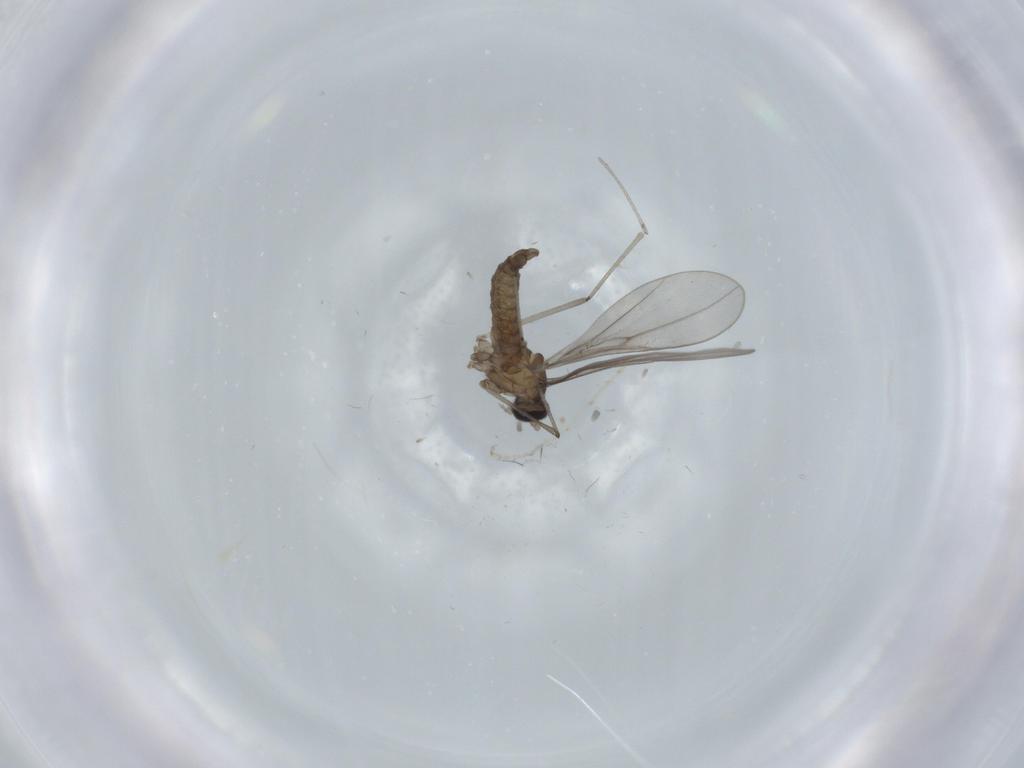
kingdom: Animalia
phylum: Arthropoda
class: Insecta
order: Diptera
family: Cecidomyiidae
